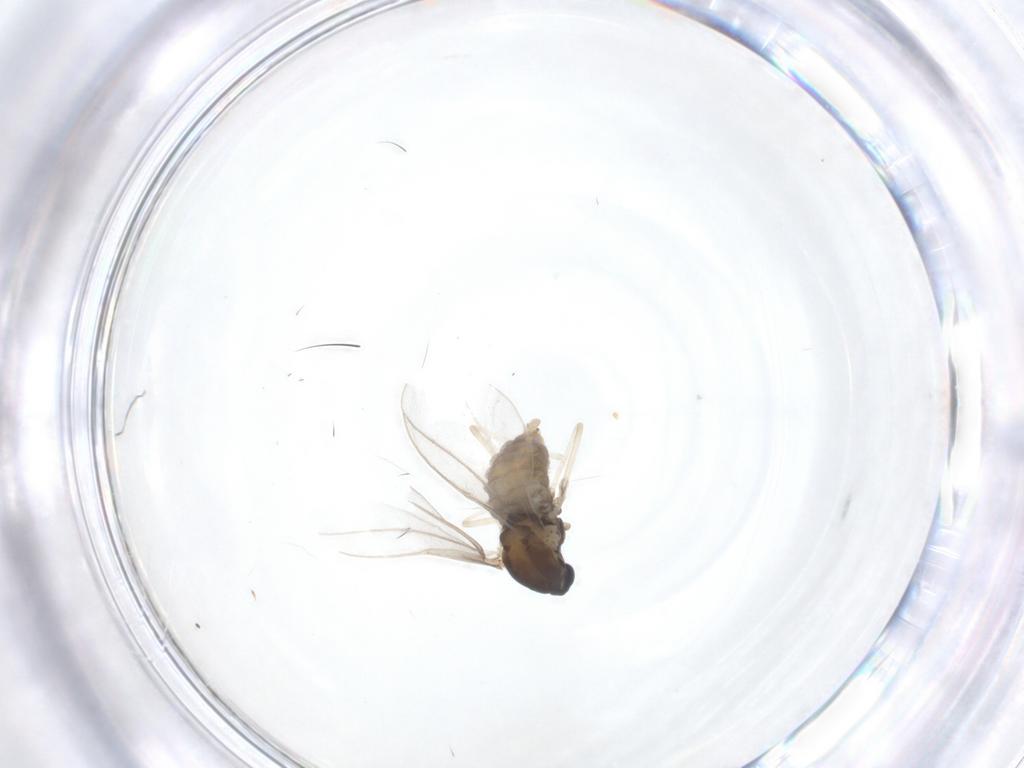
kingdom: Animalia
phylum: Arthropoda
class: Insecta
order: Diptera
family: Cecidomyiidae
